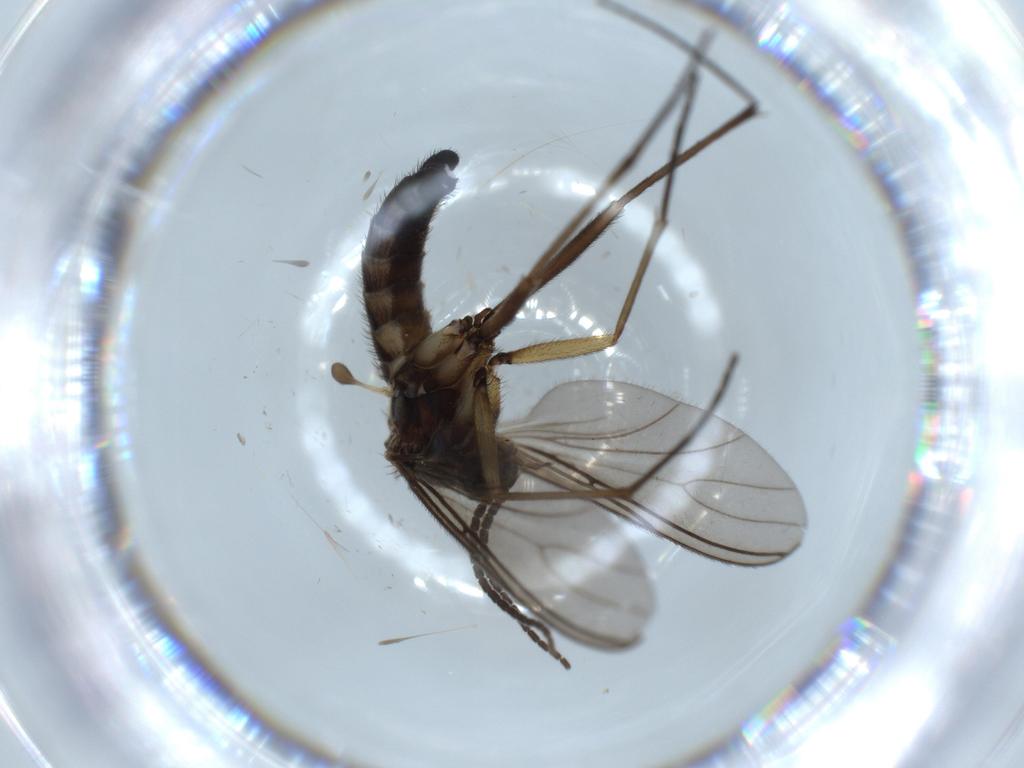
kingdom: Animalia
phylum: Arthropoda
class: Insecta
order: Diptera
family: Sciaridae
